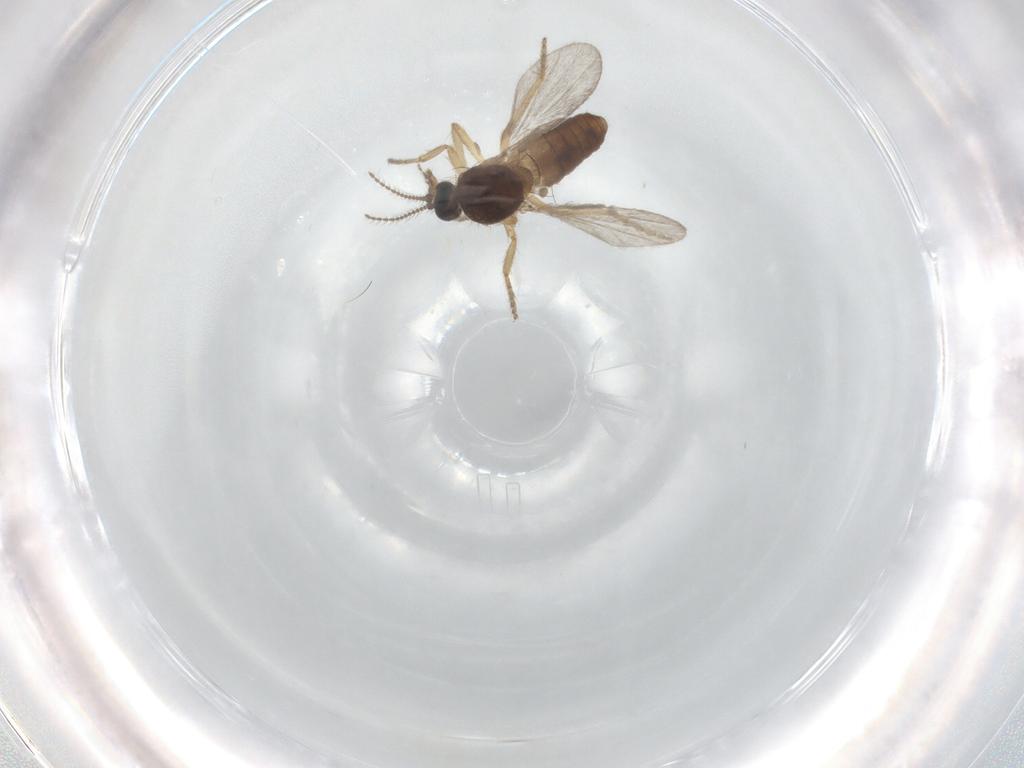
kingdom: Animalia
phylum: Arthropoda
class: Insecta
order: Diptera
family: Ceratopogonidae
